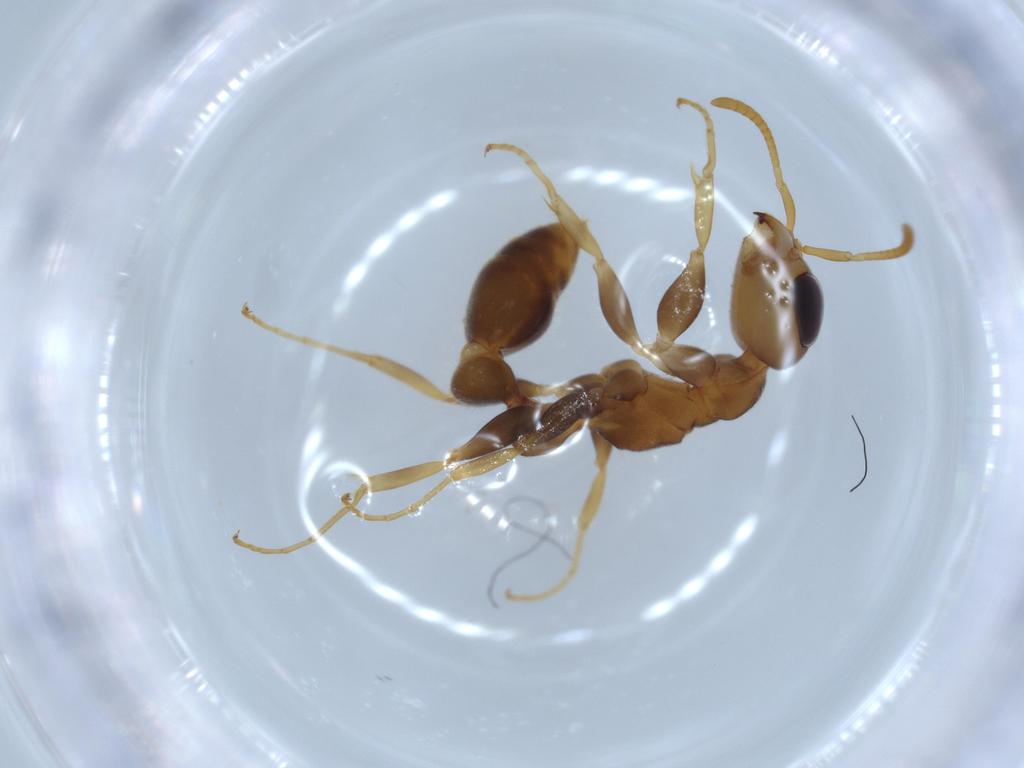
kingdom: Animalia
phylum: Arthropoda
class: Insecta
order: Hymenoptera
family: Formicidae
